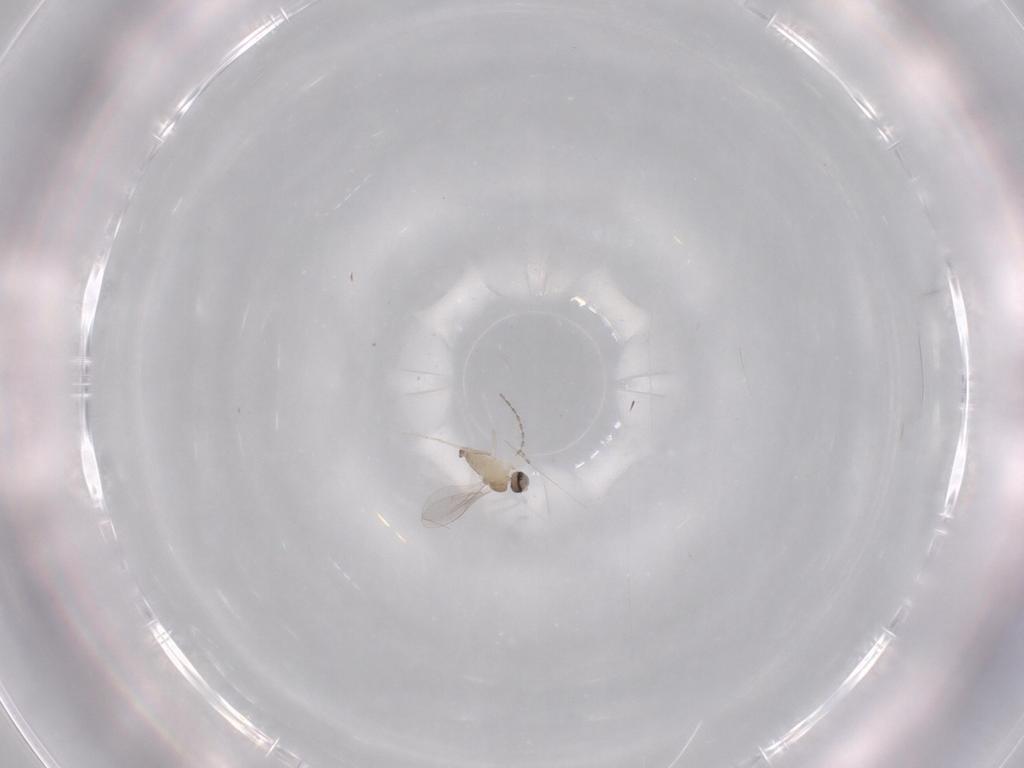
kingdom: Animalia
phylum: Arthropoda
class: Insecta
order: Diptera
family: Cecidomyiidae
